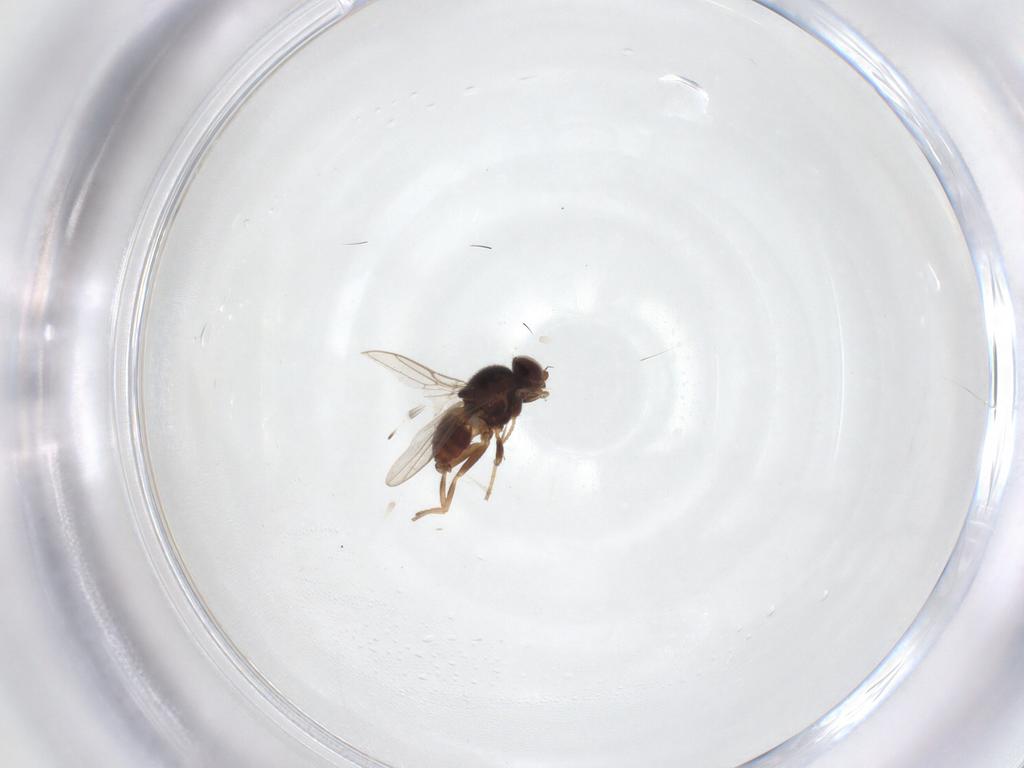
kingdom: Animalia
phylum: Arthropoda
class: Insecta
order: Diptera
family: Chloropidae
